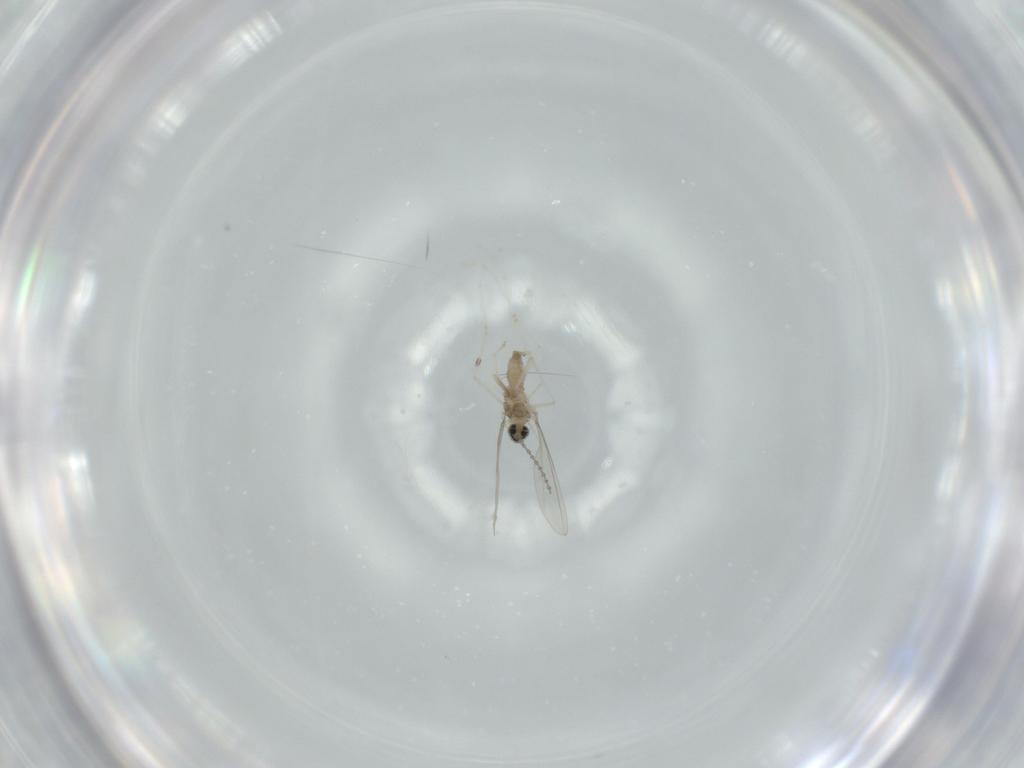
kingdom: Animalia
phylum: Arthropoda
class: Insecta
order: Diptera
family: Cecidomyiidae
